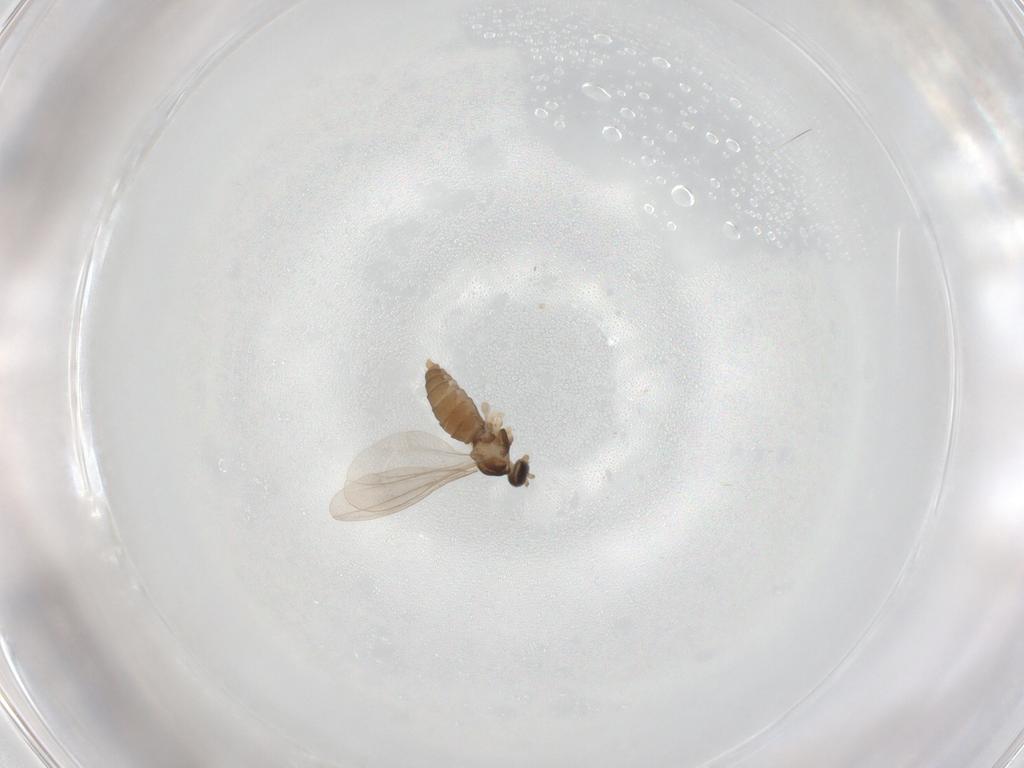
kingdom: Animalia
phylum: Arthropoda
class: Insecta
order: Diptera
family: Cecidomyiidae
